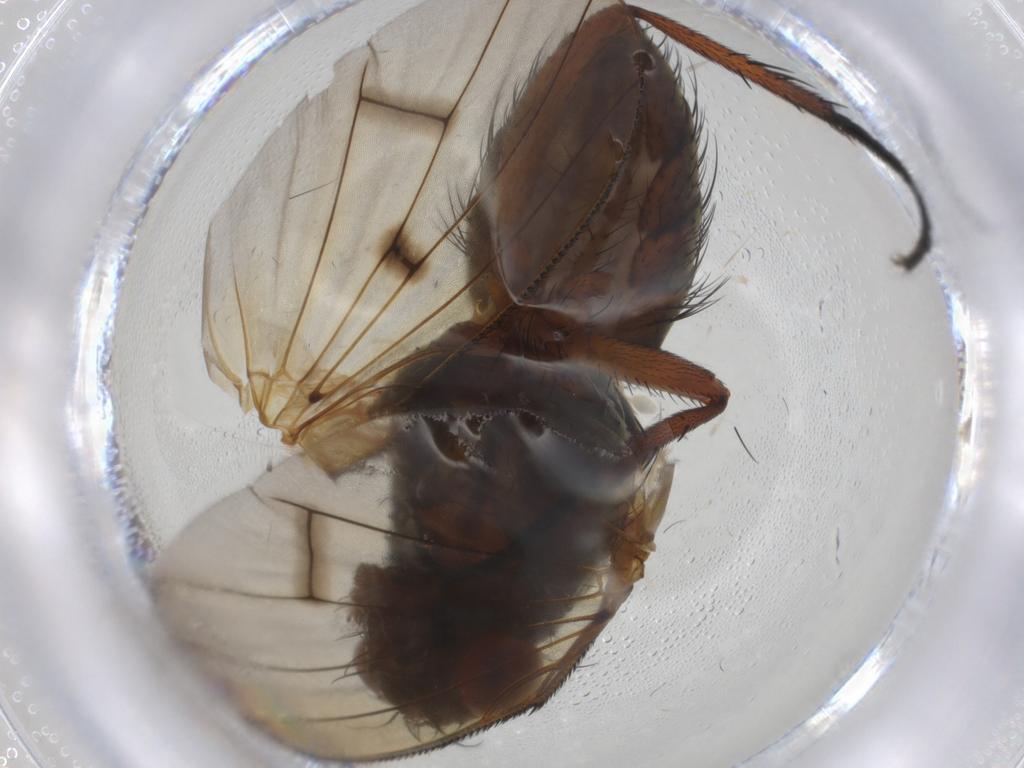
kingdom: Animalia
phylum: Arthropoda
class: Insecta
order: Diptera
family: Anthomyiidae
